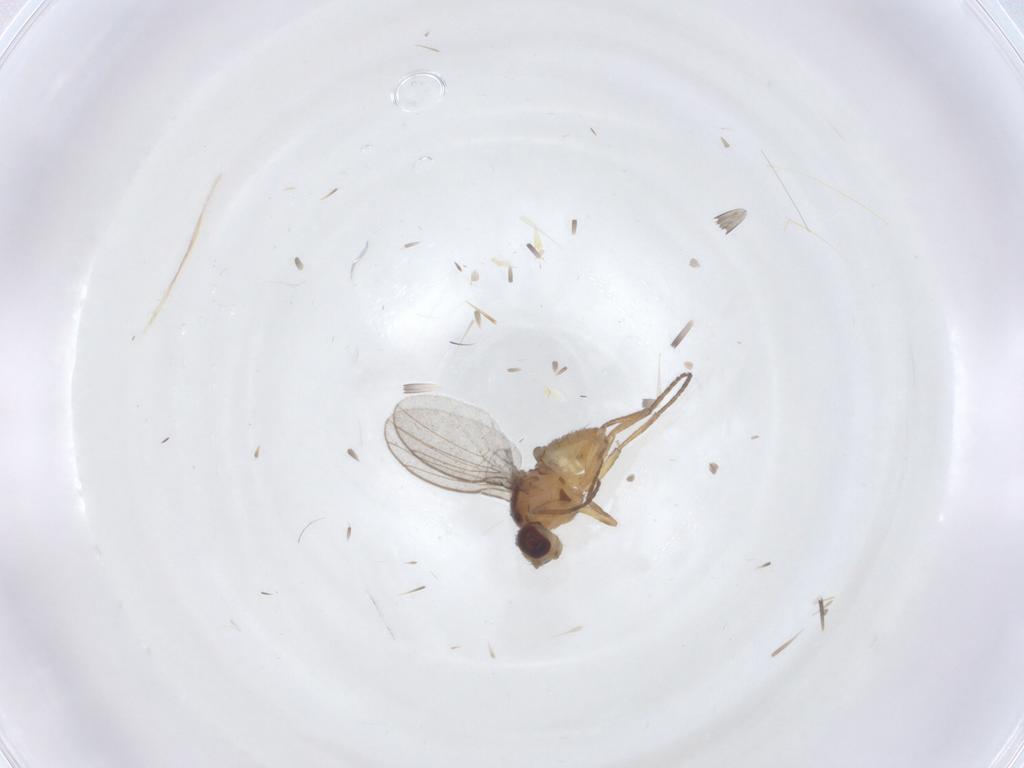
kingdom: Animalia
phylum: Arthropoda
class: Insecta
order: Diptera
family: Agromyzidae
